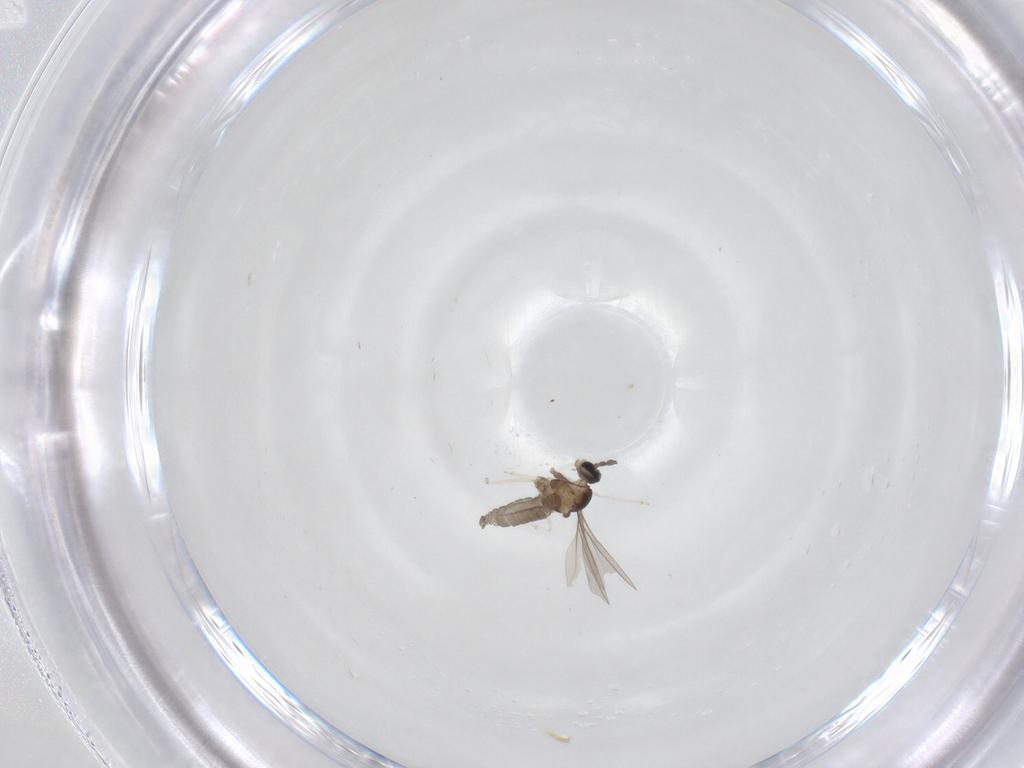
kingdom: Animalia
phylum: Arthropoda
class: Insecta
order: Diptera
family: Cecidomyiidae
